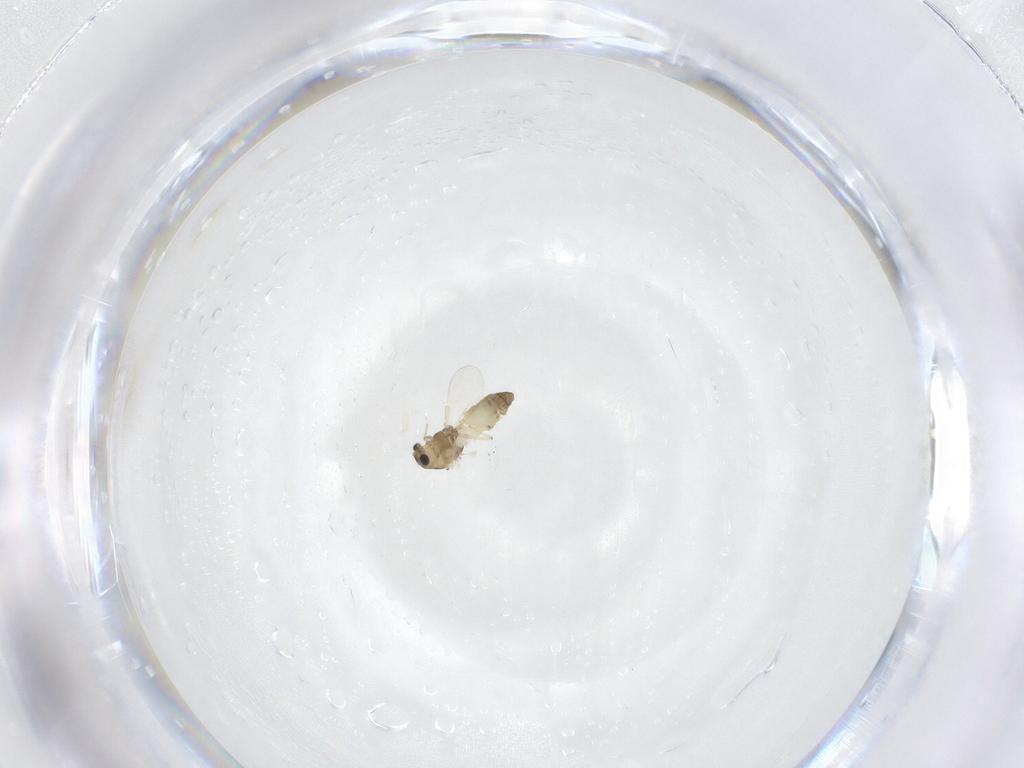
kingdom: Animalia
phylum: Arthropoda
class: Insecta
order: Diptera
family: Chironomidae
